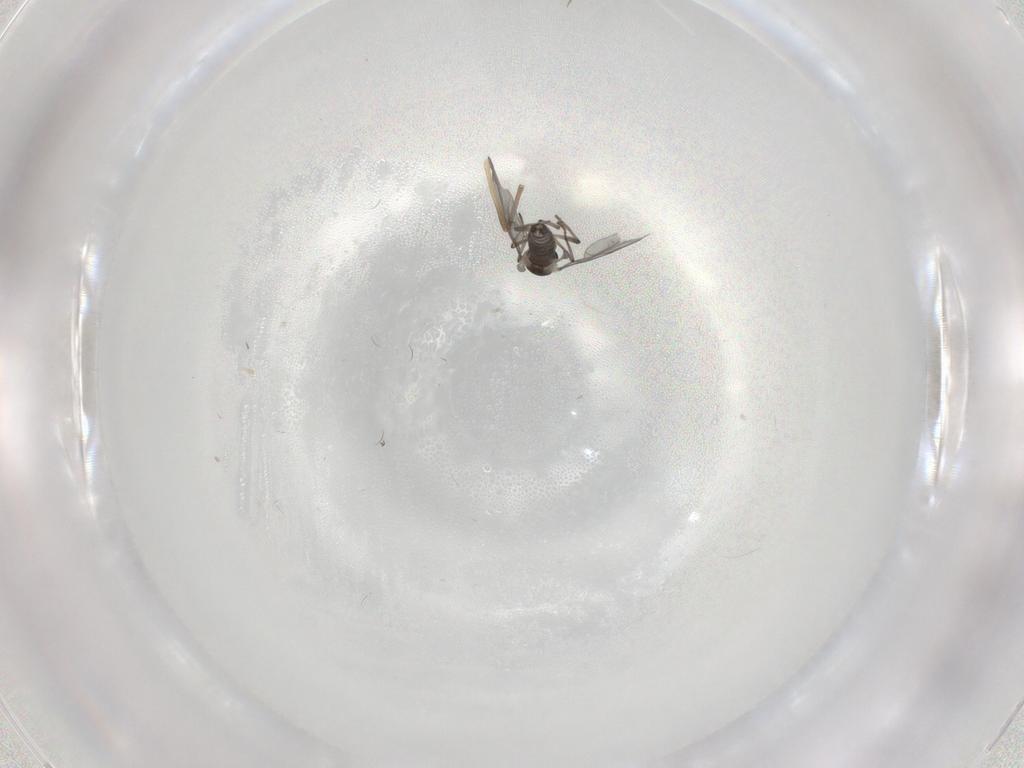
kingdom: Animalia
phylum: Arthropoda
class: Insecta
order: Diptera
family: Chironomidae
